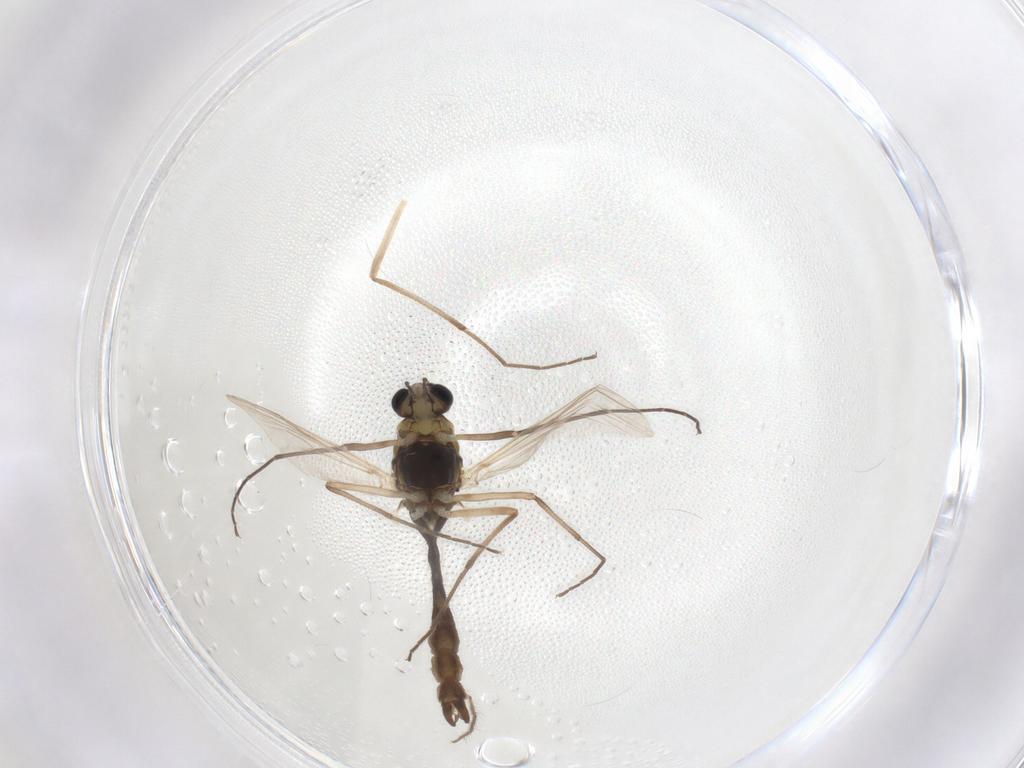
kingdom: Animalia
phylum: Arthropoda
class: Insecta
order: Diptera
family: Chironomidae
